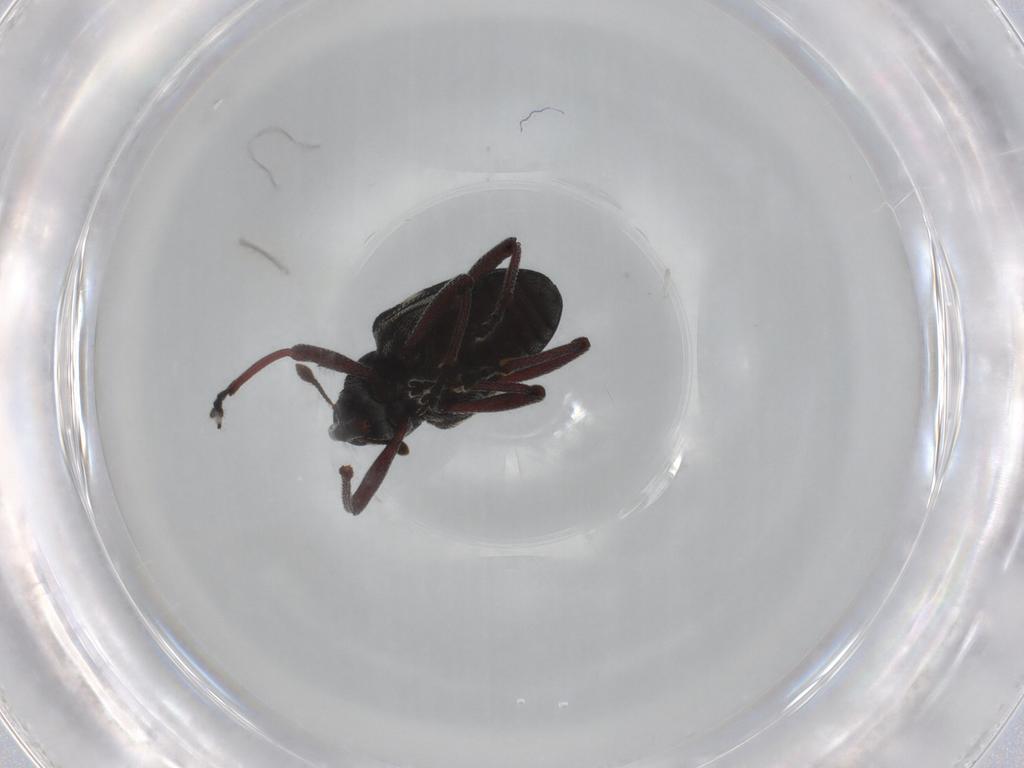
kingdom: Animalia
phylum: Arthropoda
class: Insecta
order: Coleoptera
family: Curculionidae
